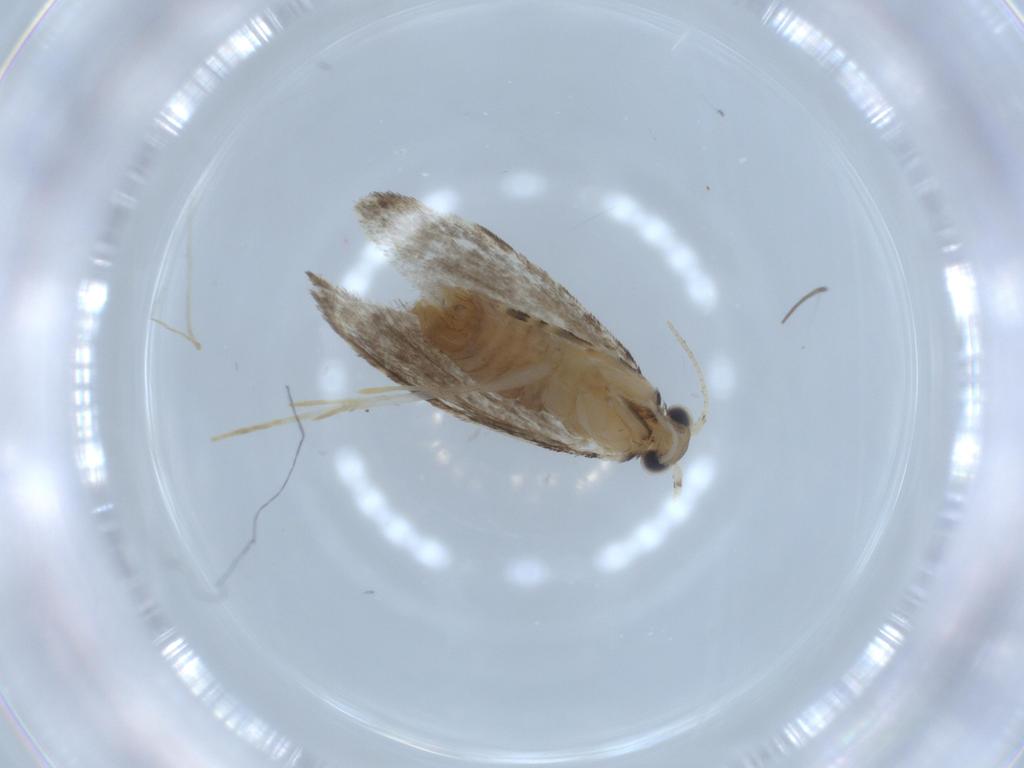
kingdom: Animalia
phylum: Arthropoda
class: Insecta
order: Lepidoptera
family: Tineidae
